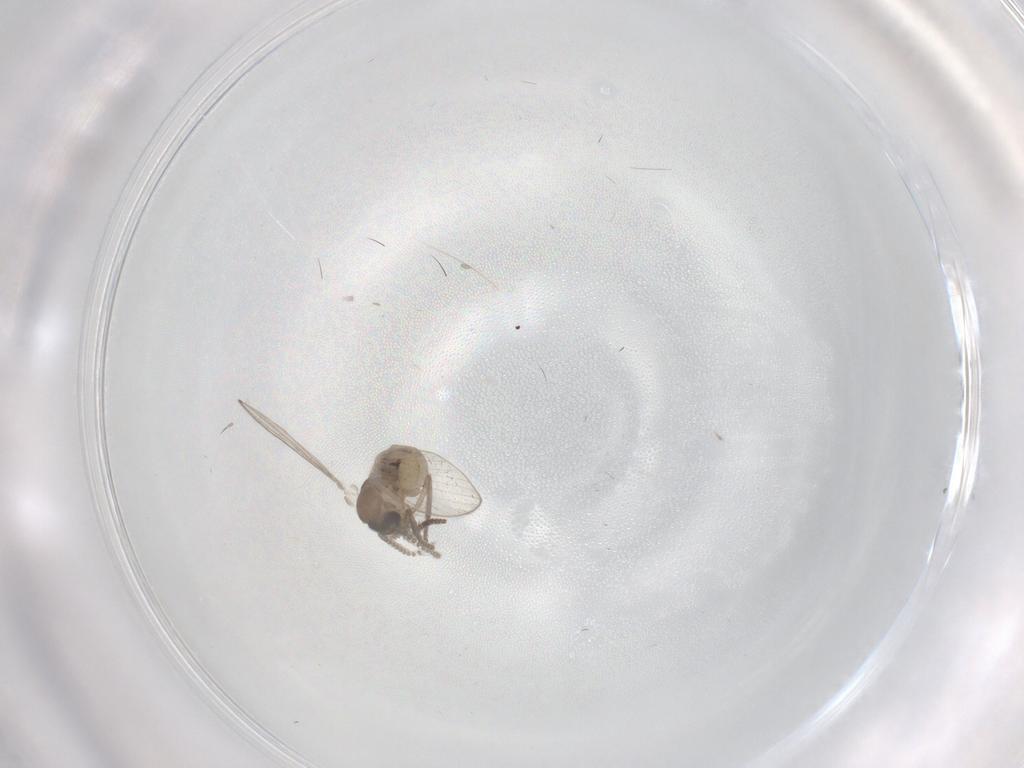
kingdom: Animalia
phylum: Arthropoda
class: Insecta
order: Diptera
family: Psychodidae
